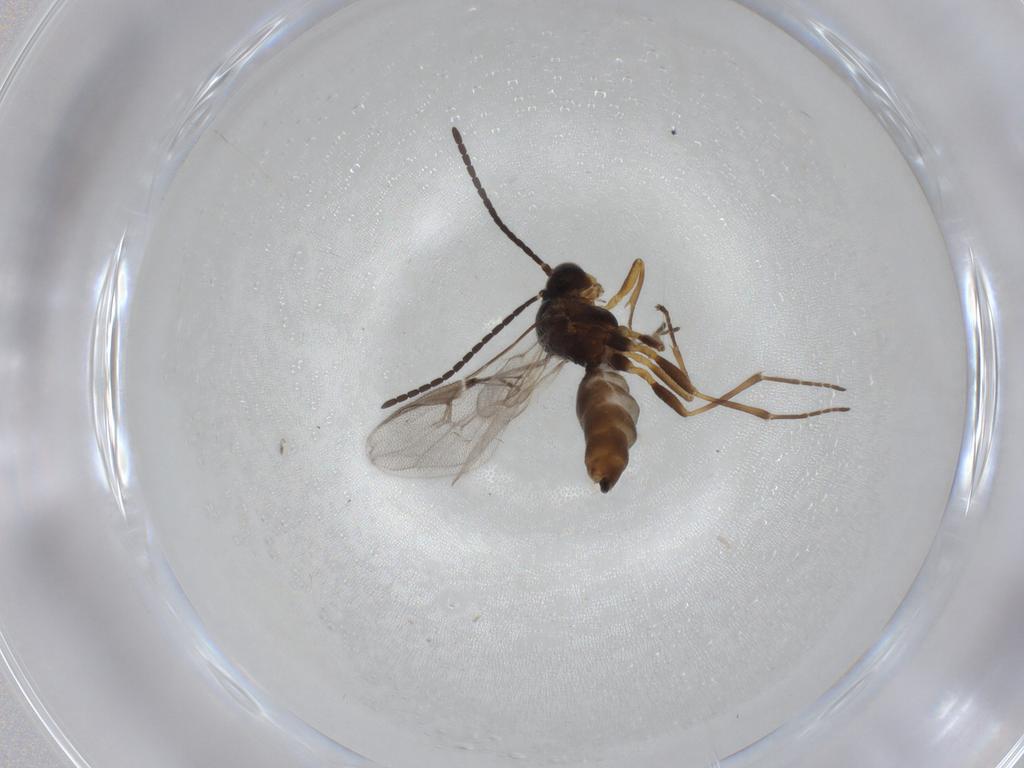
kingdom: Animalia
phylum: Arthropoda
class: Insecta
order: Hymenoptera
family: Braconidae
